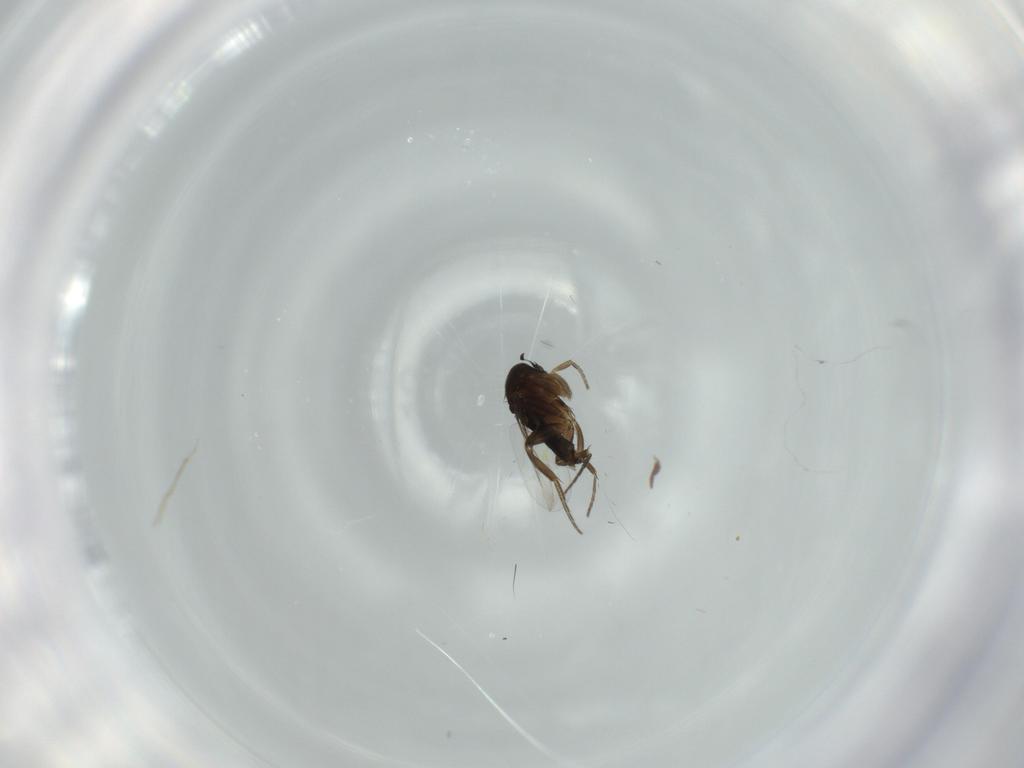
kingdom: Animalia
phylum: Arthropoda
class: Insecta
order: Diptera
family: Phoridae
